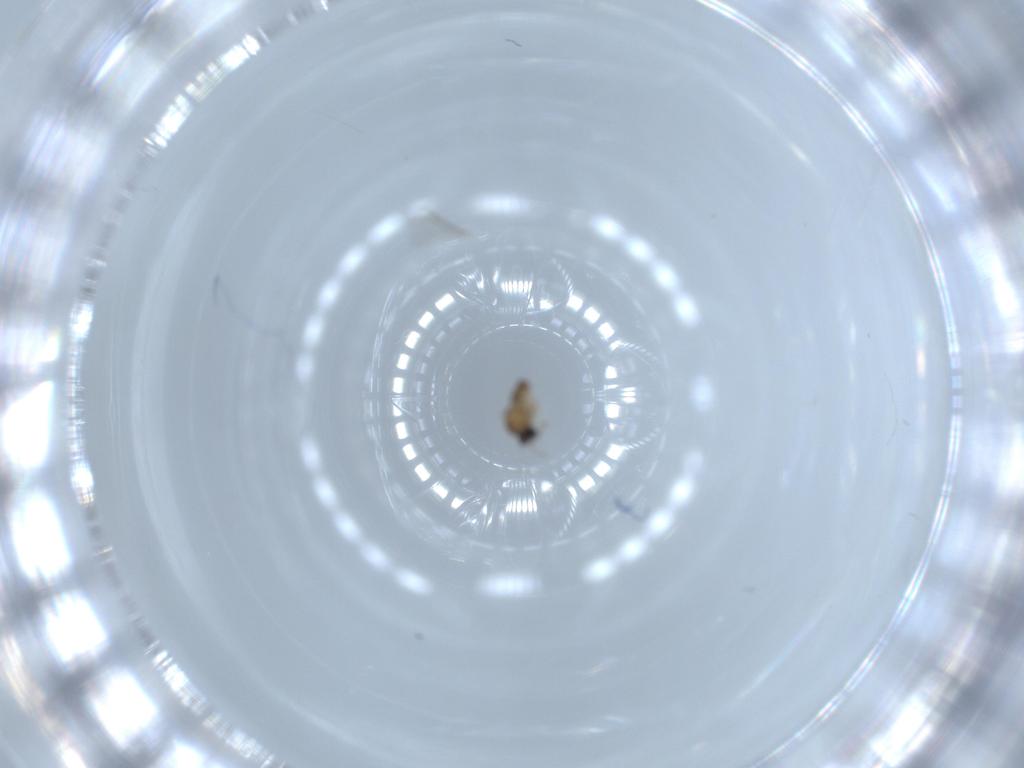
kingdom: Animalia
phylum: Arthropoda
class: Insecta
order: Diptera
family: Cecidomyiidae
